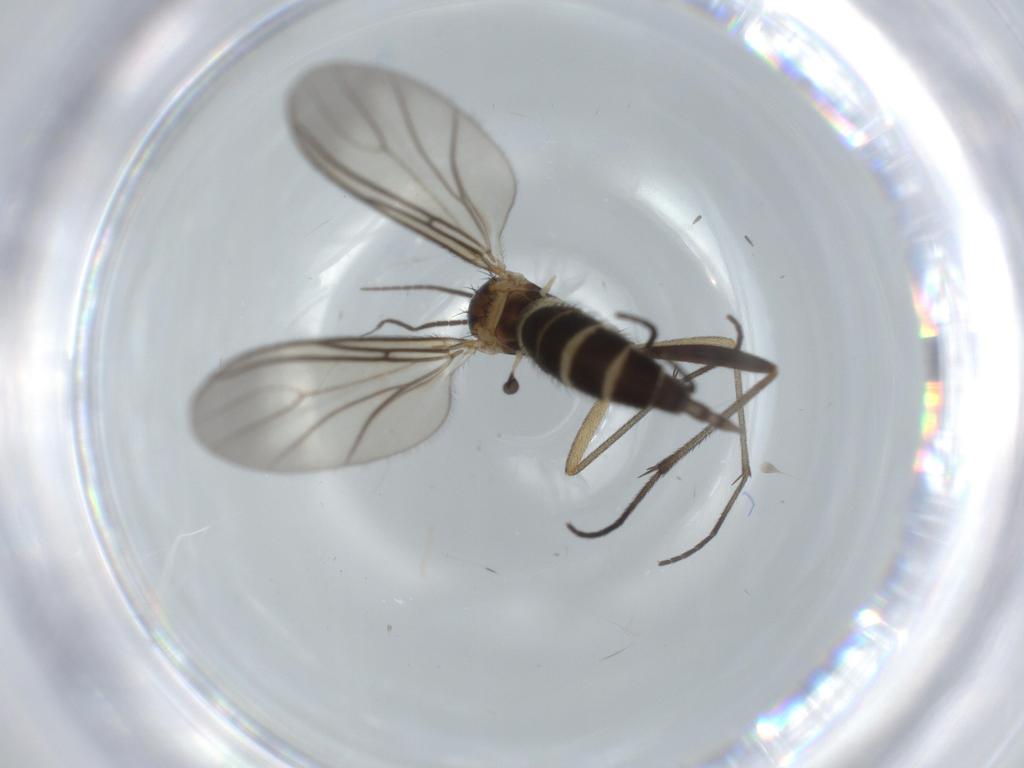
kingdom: Animalia
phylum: Arthropoda
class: Insecta
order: Diptera
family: Sciaridae
